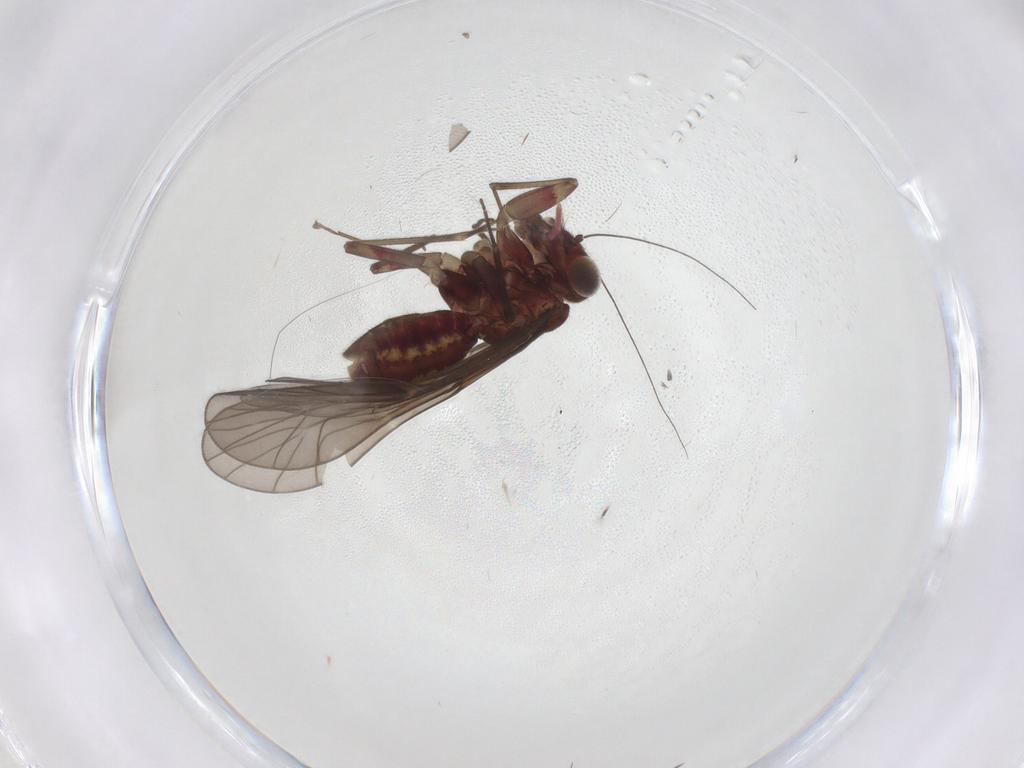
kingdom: Animalia
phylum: Arthropoda
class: Insecta
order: Psocodea
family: Philotarsidae
